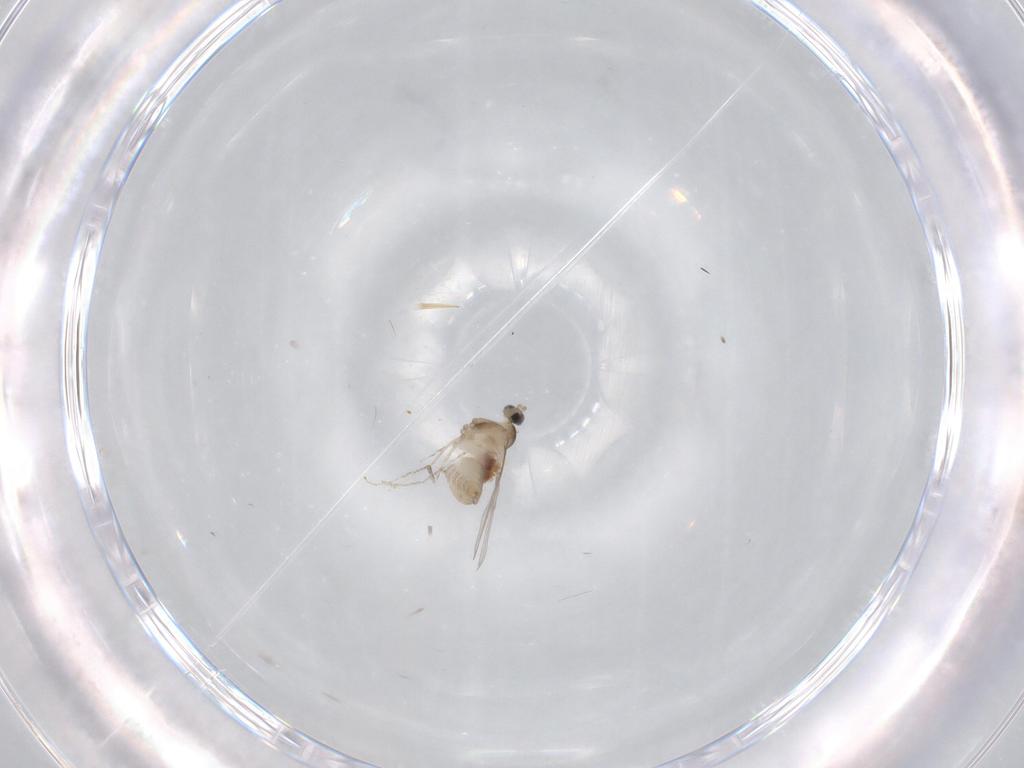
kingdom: Animalia
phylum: Arthropoda
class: Insecta
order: Diptera
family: Cecidomyiidae
